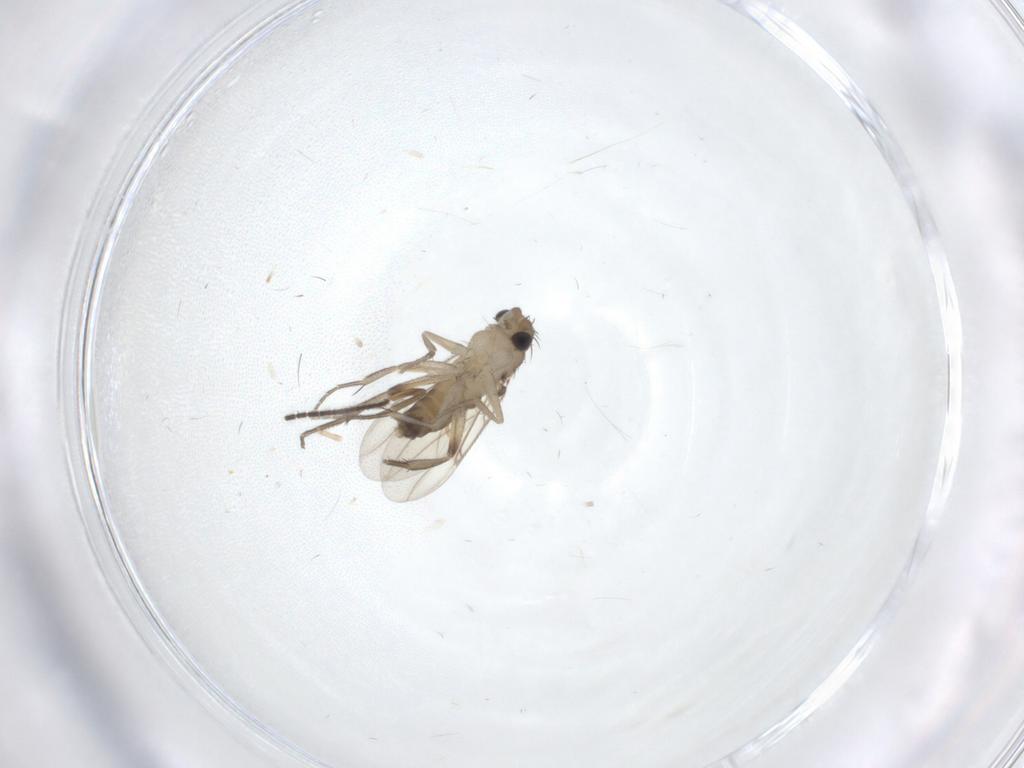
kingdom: Animalia
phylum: Arthropoda
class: Insecta
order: Diptera
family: Phoridae
